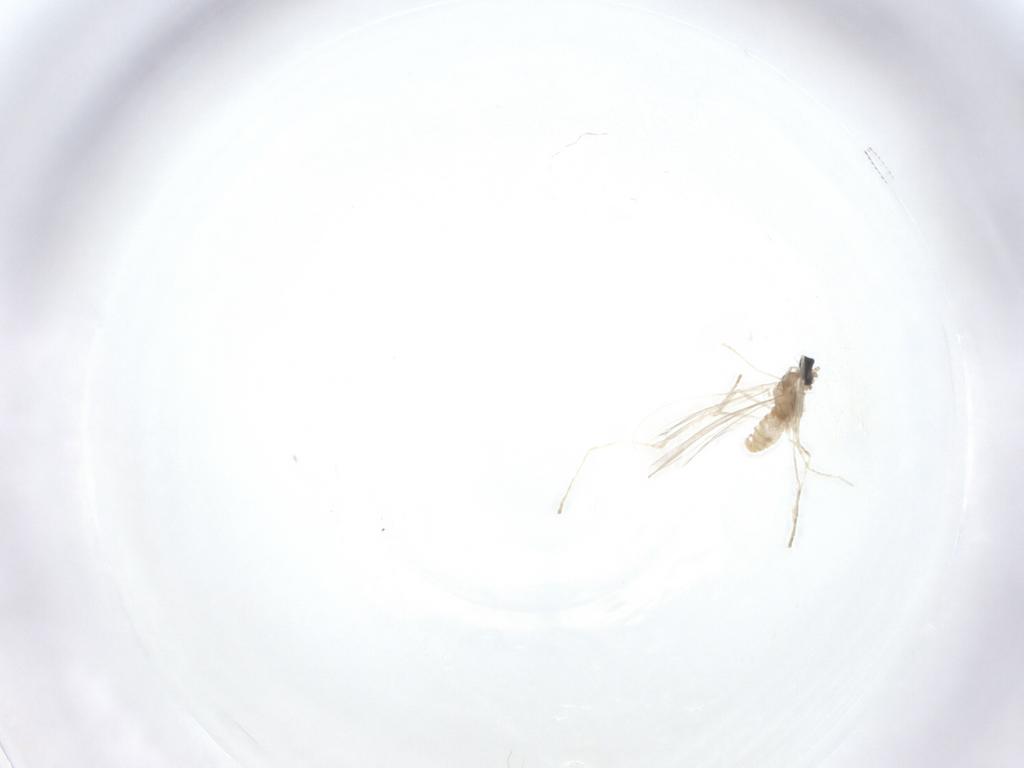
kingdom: Animalia
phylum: Arthropoda
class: Insecta
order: Diptera
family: Cecidomyiidae
